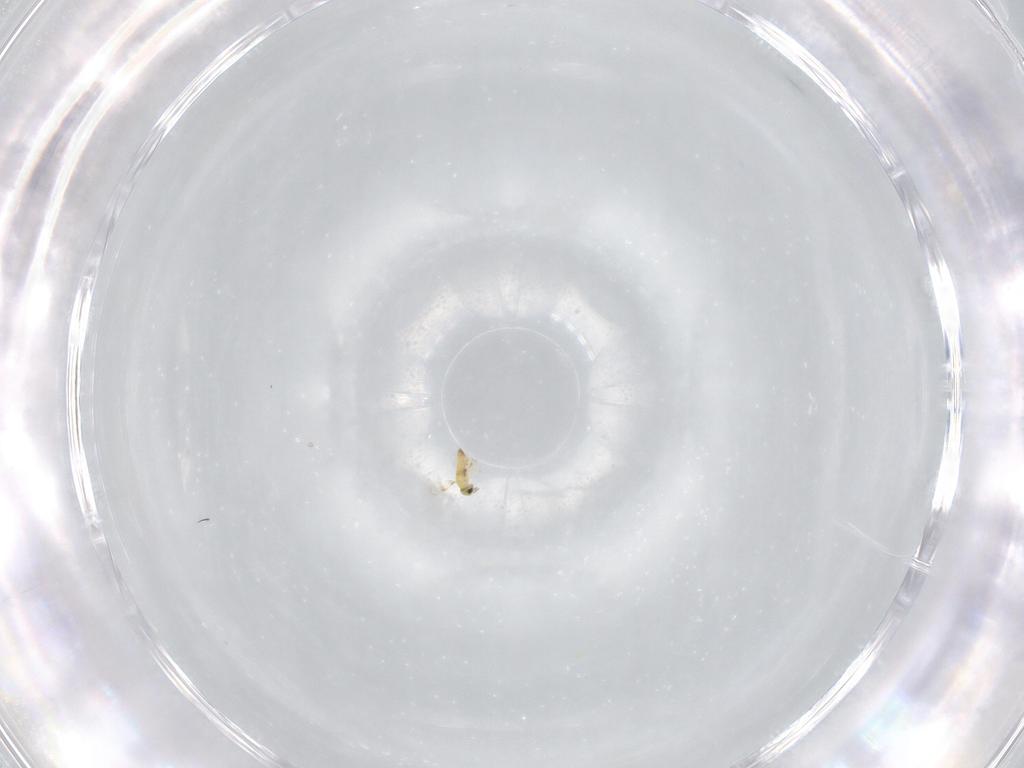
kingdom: Animalia
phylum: Arthropoda
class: Insecta
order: Hymenoptera
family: Trichogrammatidae
